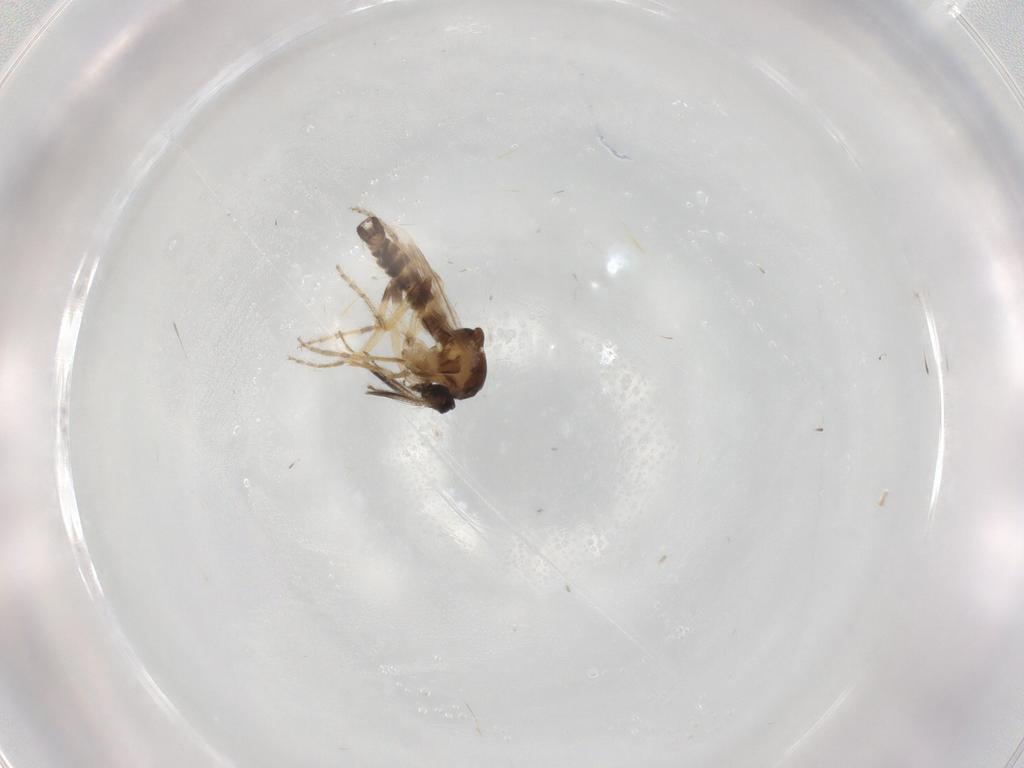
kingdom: Animalia
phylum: Arthropoda
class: Insecta
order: Diptera
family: Ceratopogonidae
